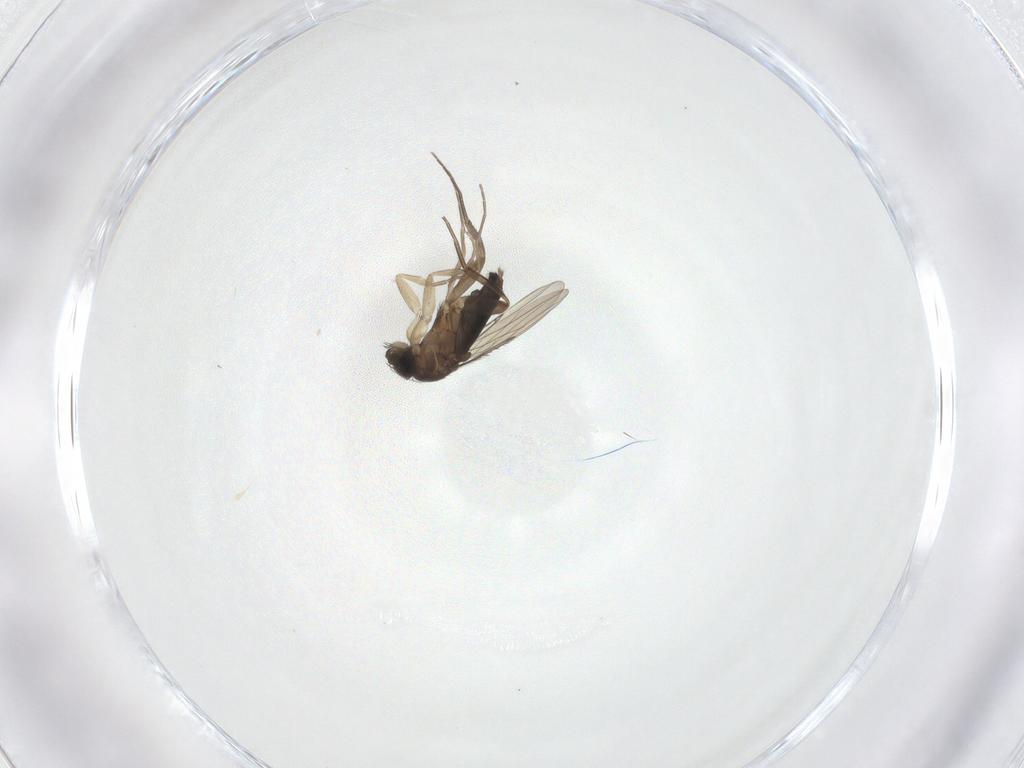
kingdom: Animalia
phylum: Arthropoda
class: Insecta
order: Diptera
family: Phoridae
